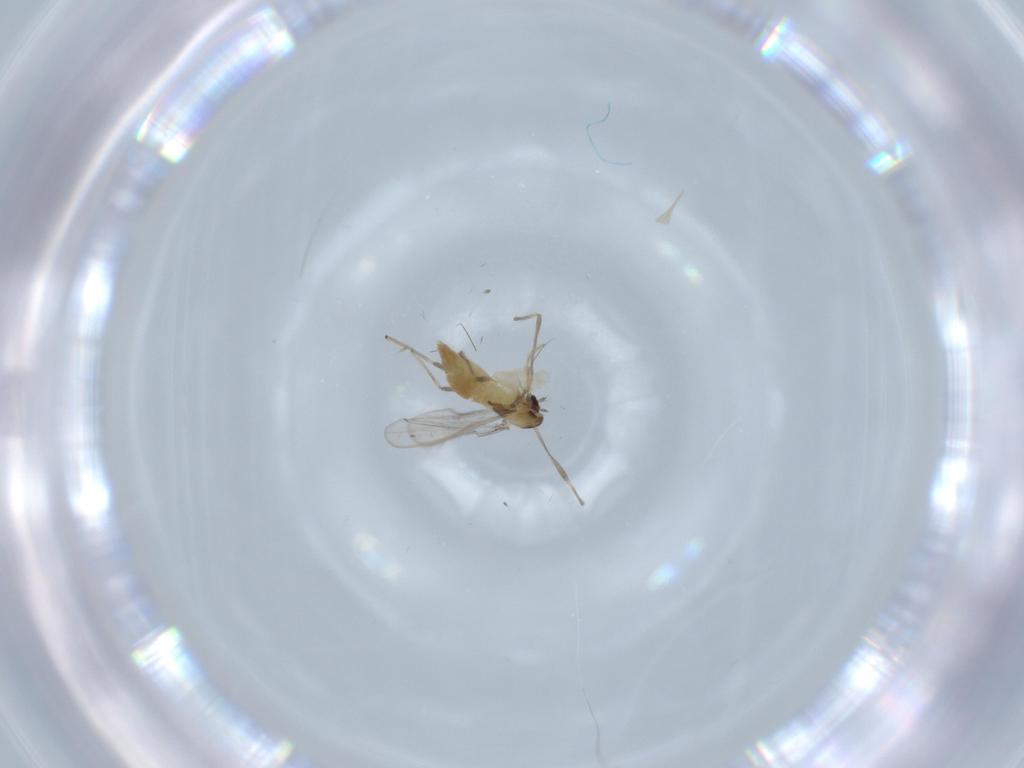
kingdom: Animalia
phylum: Arthropoda
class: Insecta
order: Diptera
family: Chironomidae
